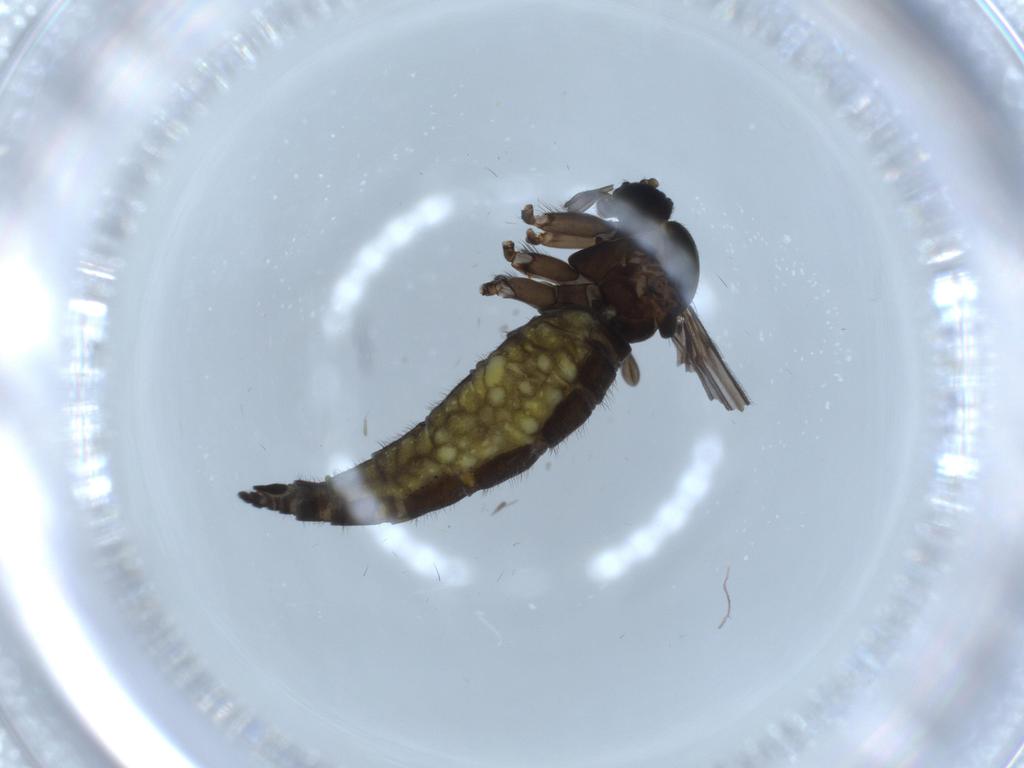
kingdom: Animalia
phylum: Arthropoda
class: Insecta
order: Diptera
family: Sciaridae
